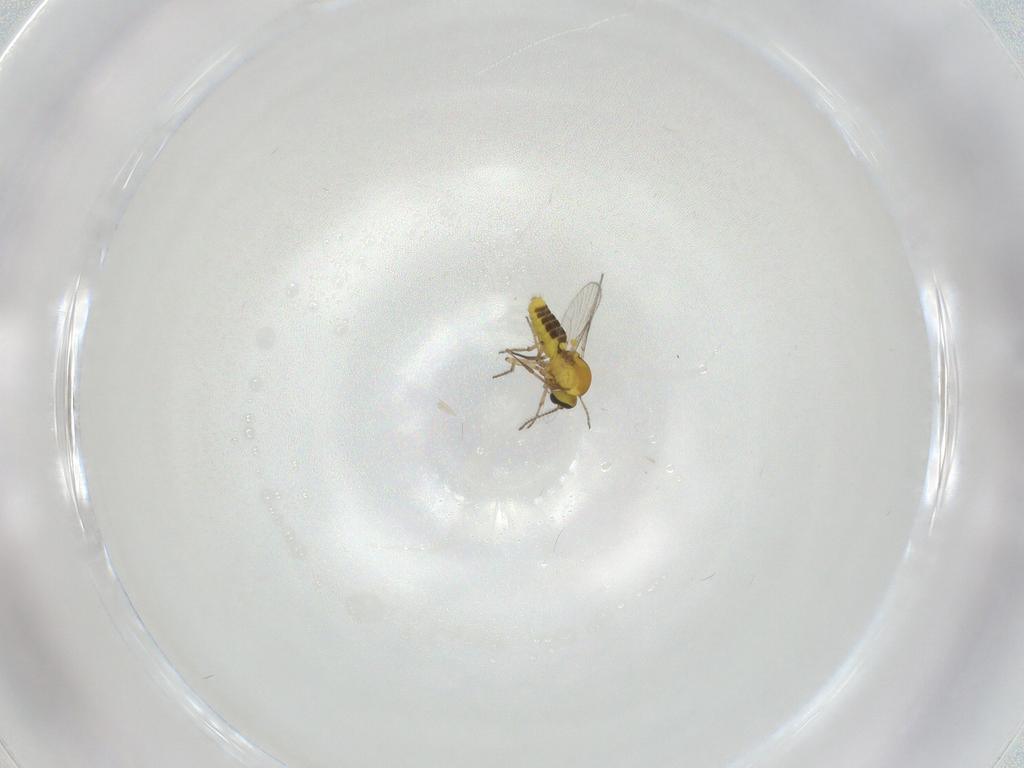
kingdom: Animalia
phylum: Arthropoda
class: Insecta
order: Diptera
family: Ceratopogonidae
